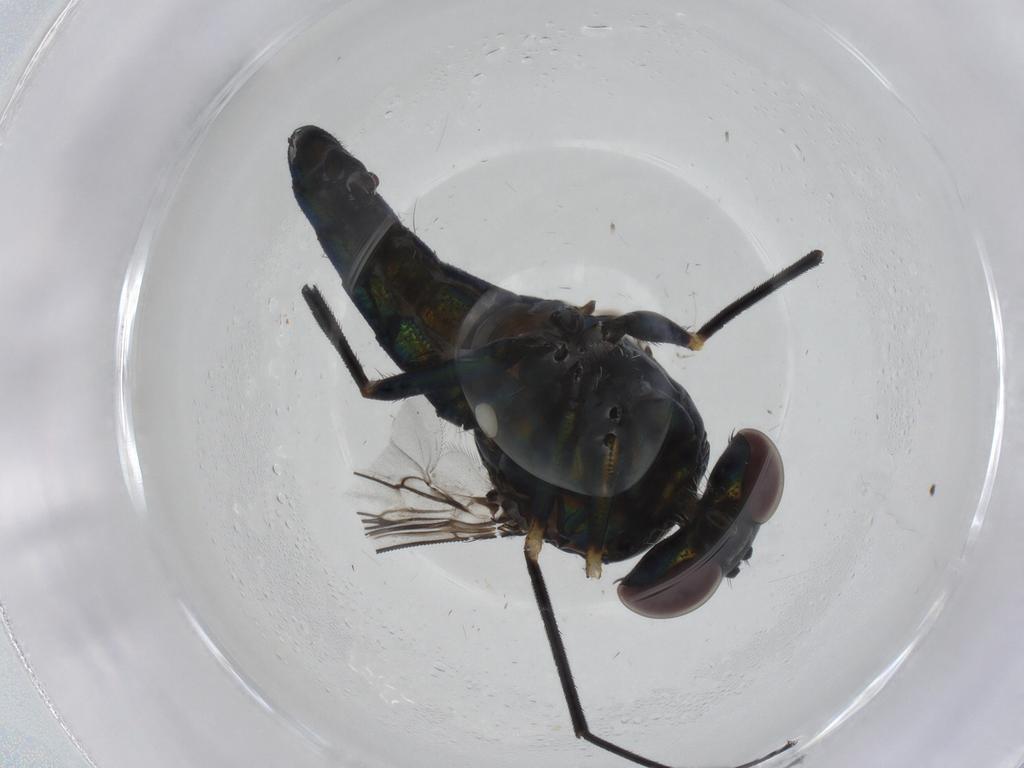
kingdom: Animalia
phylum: Arthropoda
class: Insecta
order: Diptera
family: Dolichopodidae
